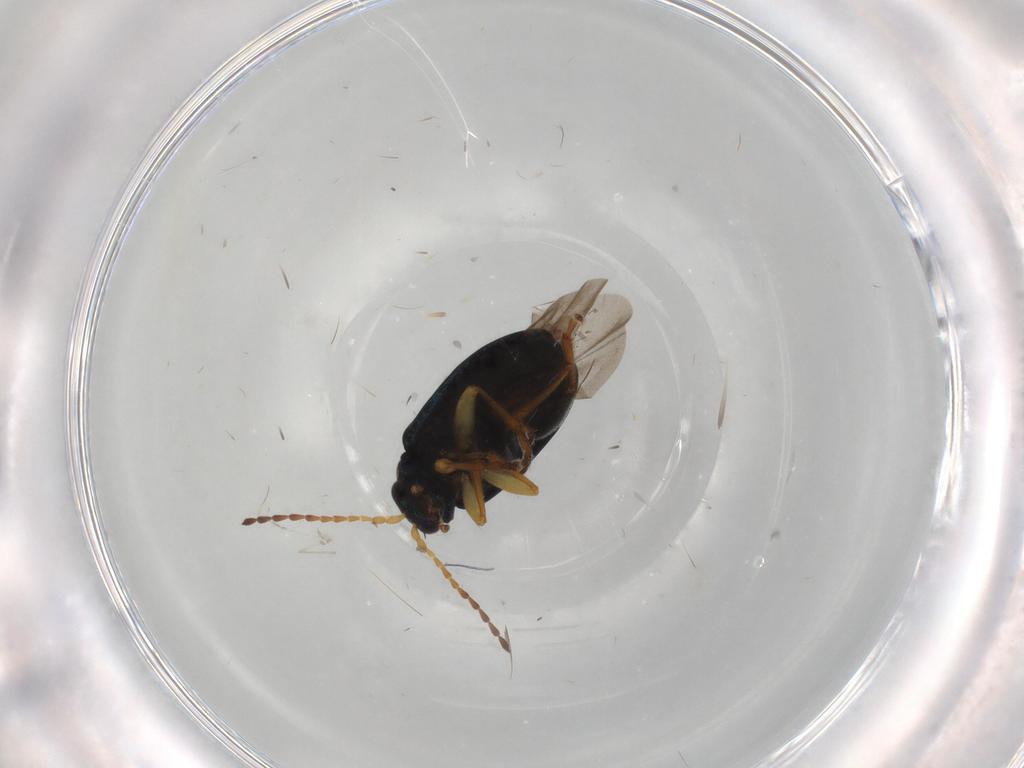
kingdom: Animalia
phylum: Arthropoda
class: Insecta
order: Coleoptera
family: Chrysomelidae
